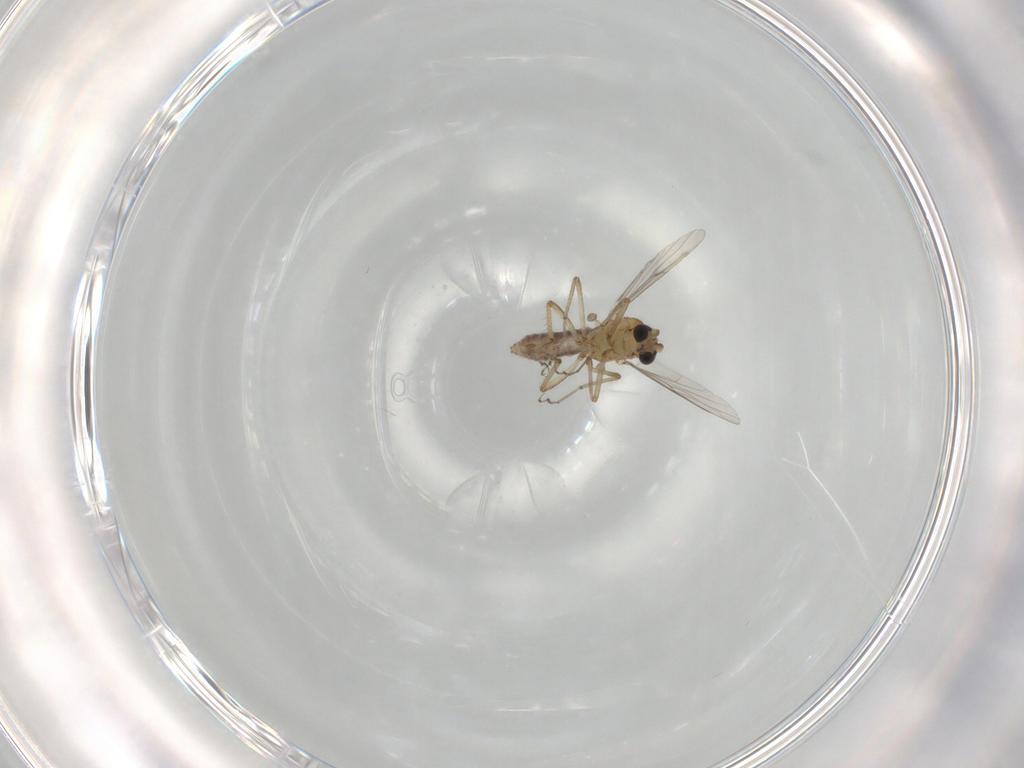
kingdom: Animalia
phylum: Arthropoda
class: Insecta
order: Diptera
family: Ceratopogonidae
